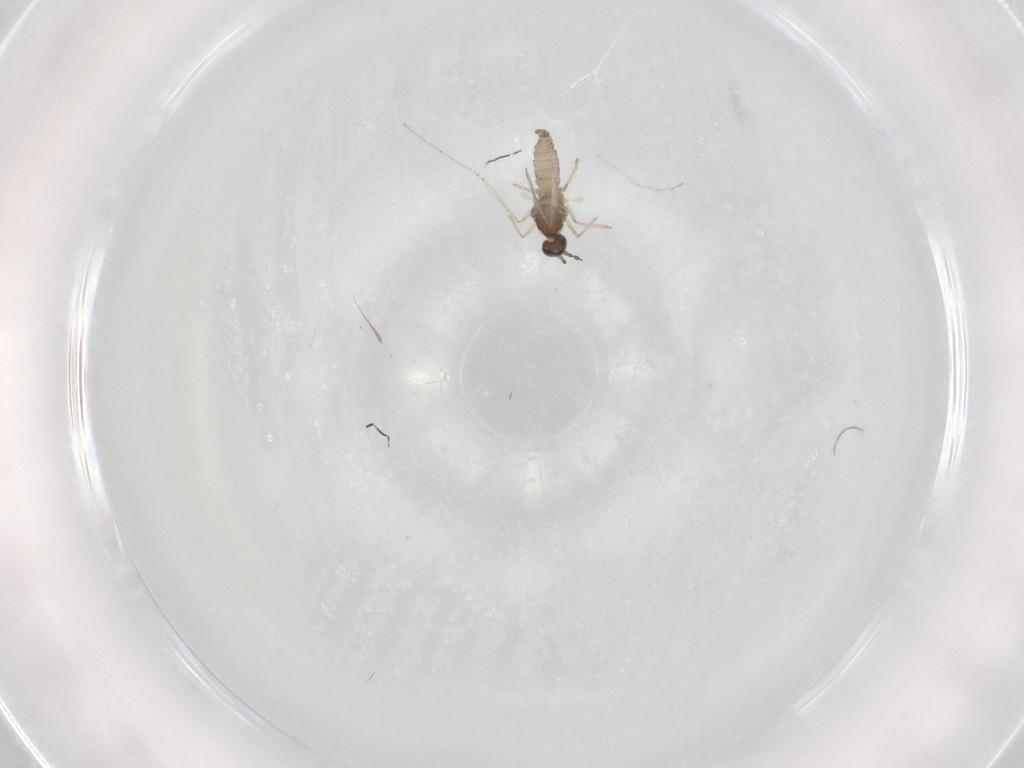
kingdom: Animalia
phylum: Arthropoda
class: Insecta
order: Diptera
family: Cecidomyiidae
